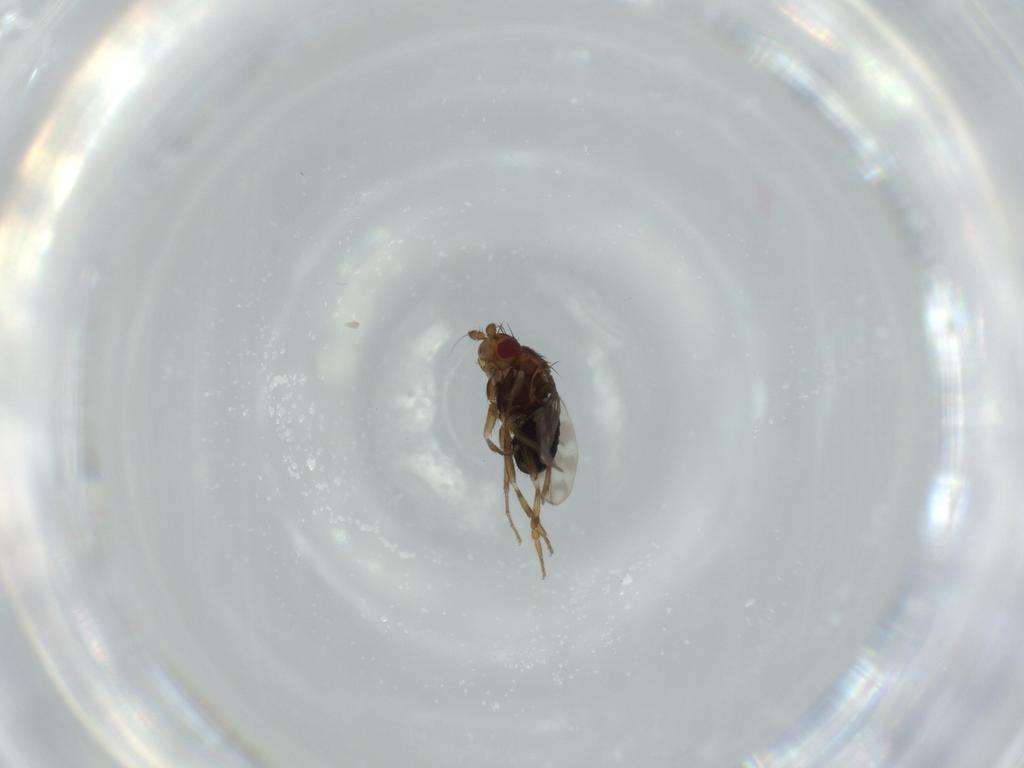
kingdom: Animalia
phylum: Arthropoda
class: Insecta
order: Diptera
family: Sphaeroceridae
